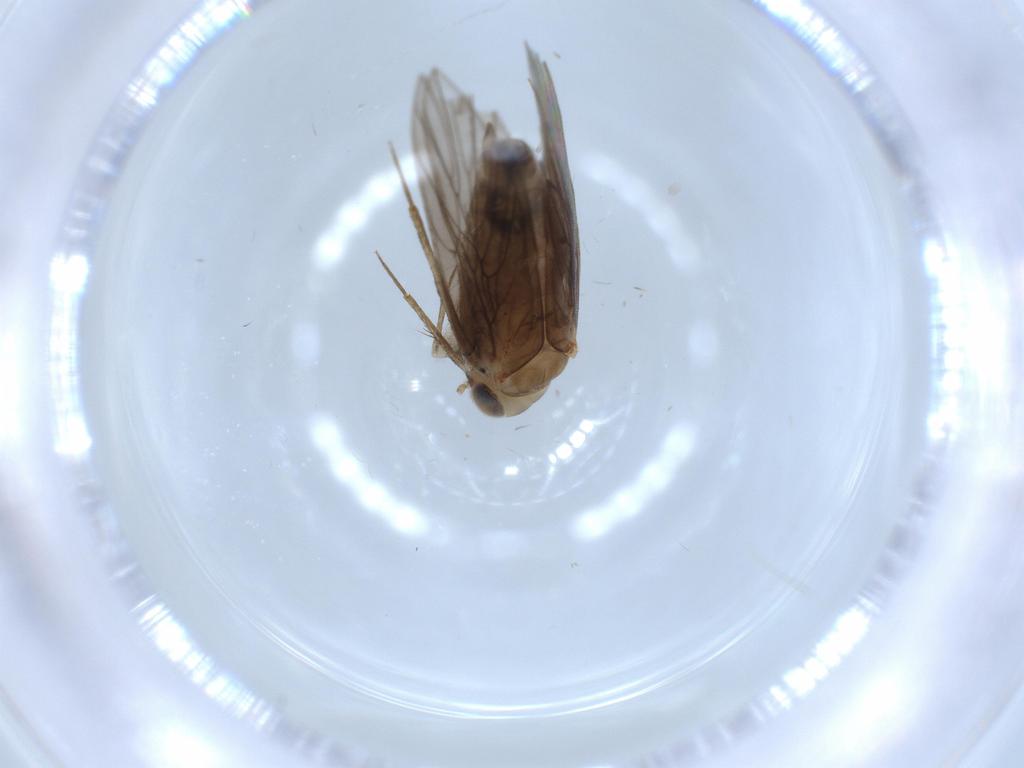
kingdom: Animalia
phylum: Arthropoda
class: Insecta
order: Psocodea
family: Lepidopsocidae
